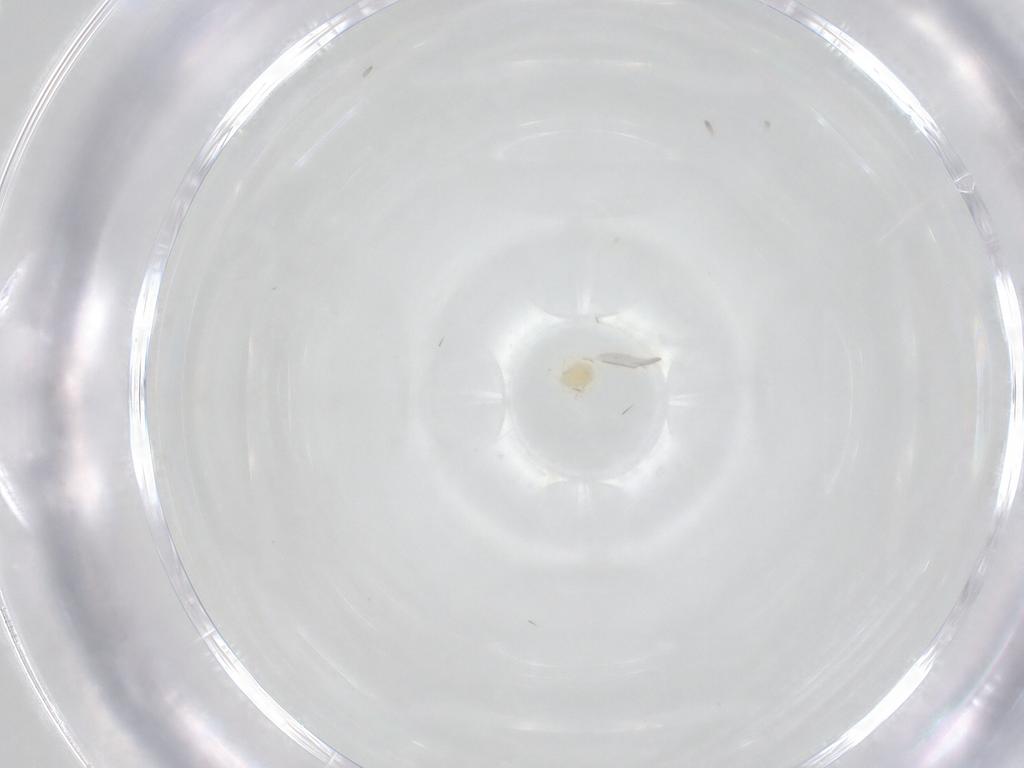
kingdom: Animalia
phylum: Arthropoda
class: Arachnida
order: Trombidiformes
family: Torrenticolidae
